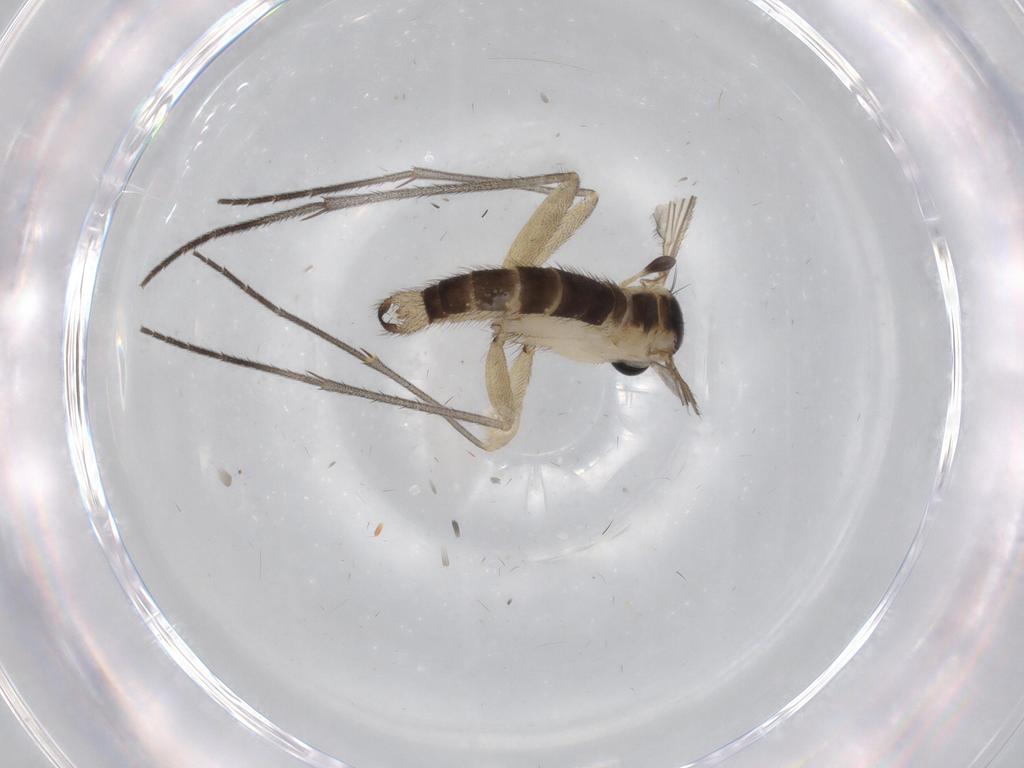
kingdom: Animalia
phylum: Arthropoda
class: Insecta
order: Diptera
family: Sciaridae
